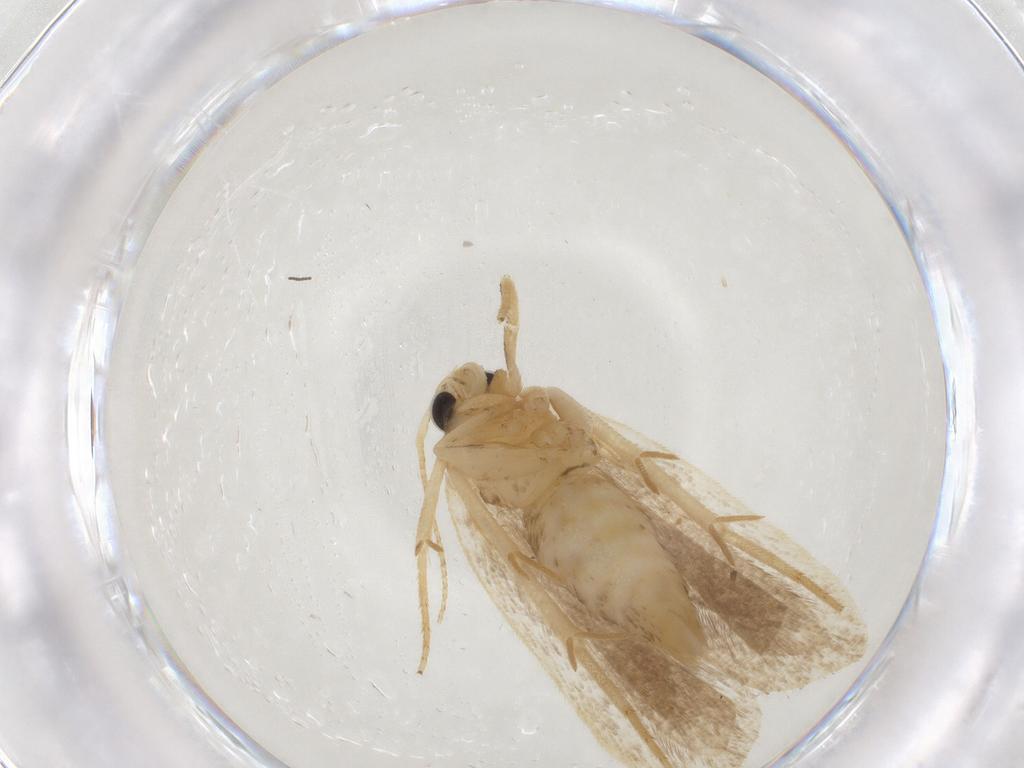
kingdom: Animalia
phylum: Arthropoda
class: Insecta
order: Lepidoptera
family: Gelechiidae
